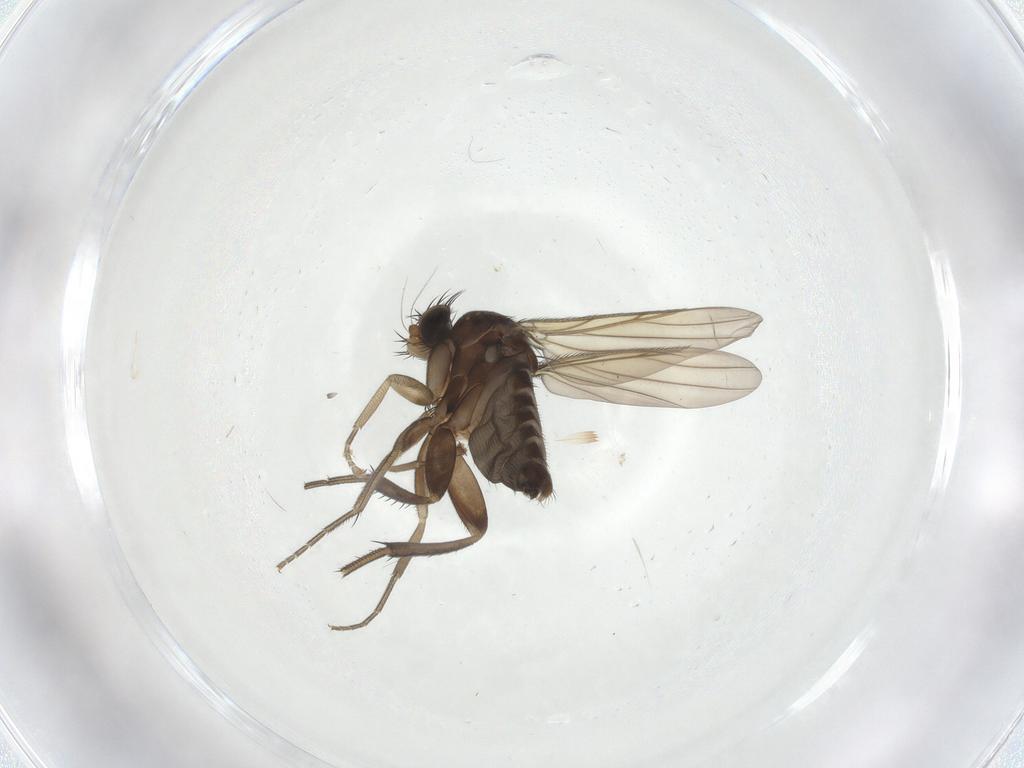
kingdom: Animalia
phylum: Arthropoda
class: Insecta
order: Diptera
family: Phoridae
